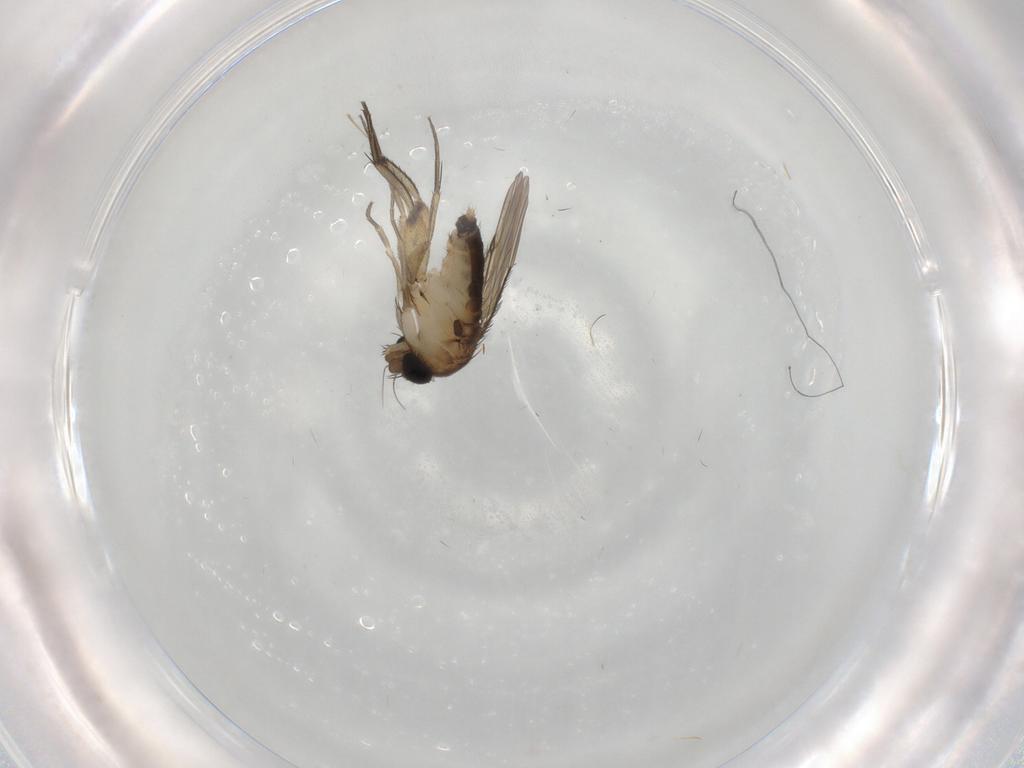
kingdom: Animalia
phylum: Arthropoda
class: Insecta
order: Diptera
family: Phoridae
